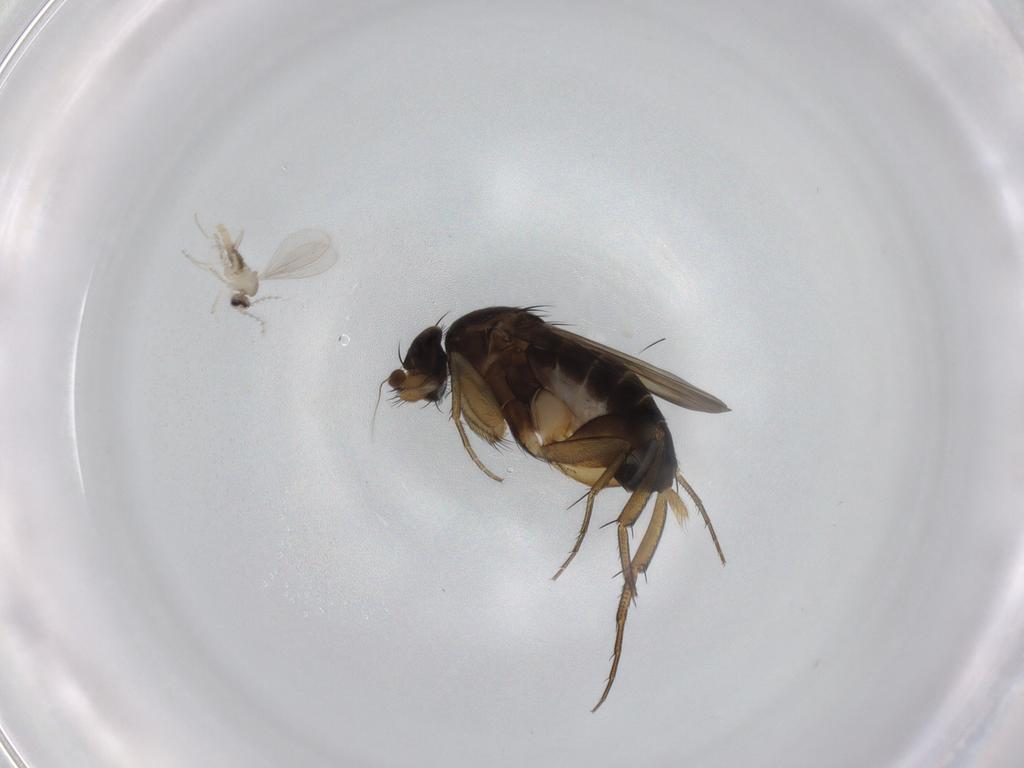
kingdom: Animalia
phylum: Arthropoda
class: Insecta
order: Diptera
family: Phoridae
